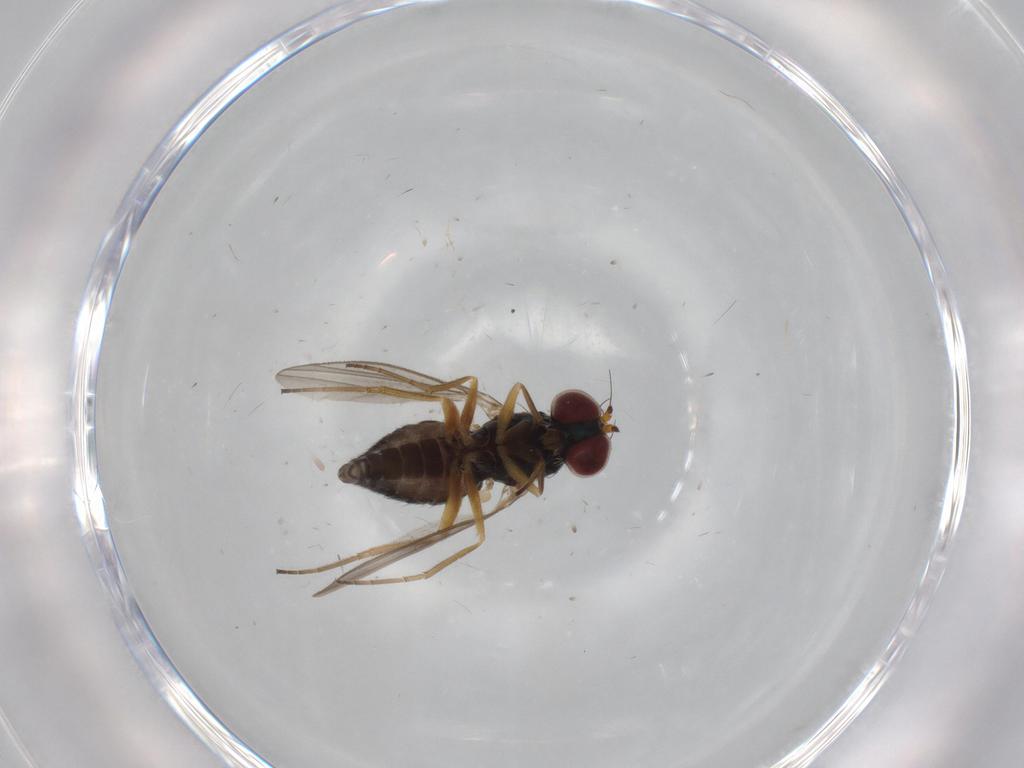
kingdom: Animalia
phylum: Arthropoda
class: Insecta
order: Diptera
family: Dolichopodidae
